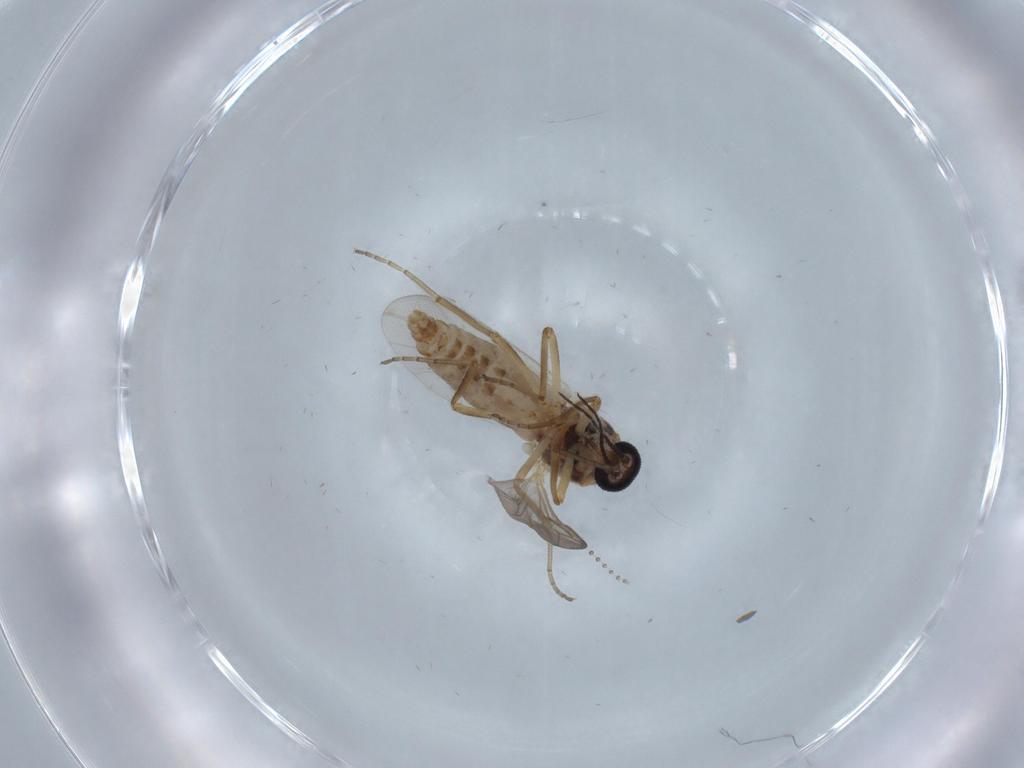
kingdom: Animalia
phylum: Arthropoda
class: Insecta
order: Diptera
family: Ceratopogonidae
